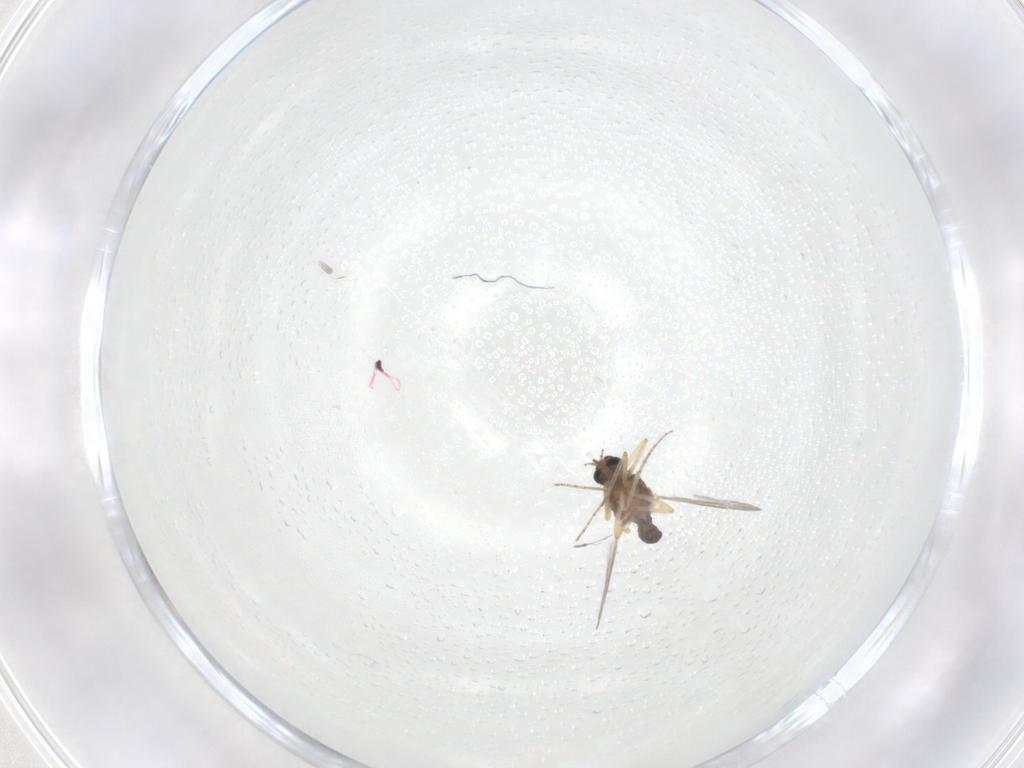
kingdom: Animalia
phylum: Arthropoda
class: Insecta
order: Diptera
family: Ceratopogonidae
